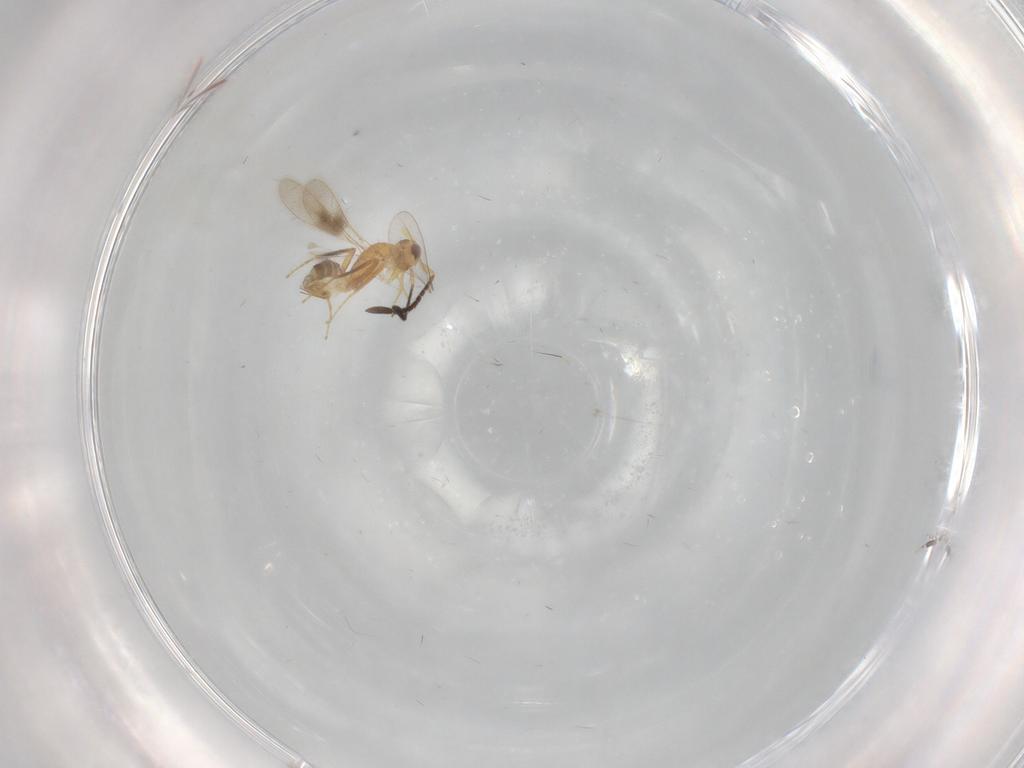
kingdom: Animalia
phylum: Arthropoda
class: Insecta
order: Hymenoptera
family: Mymaridae
